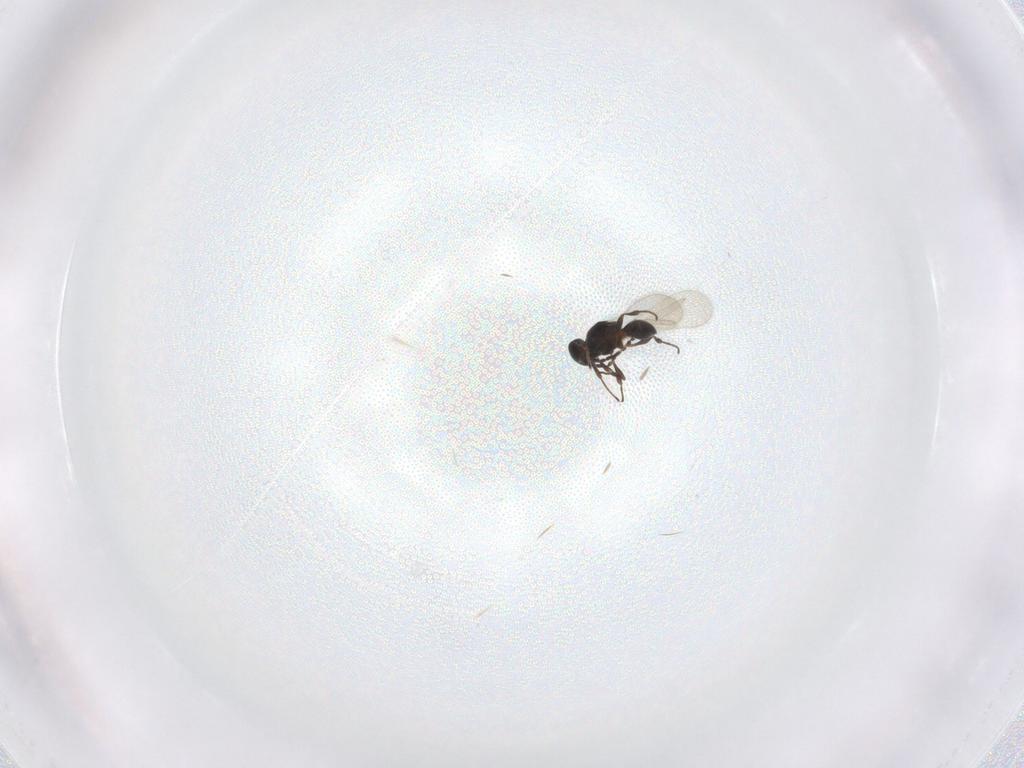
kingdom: Animalia
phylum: Arthropoda
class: Insecta
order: Hymenoptera
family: Platygastridae
